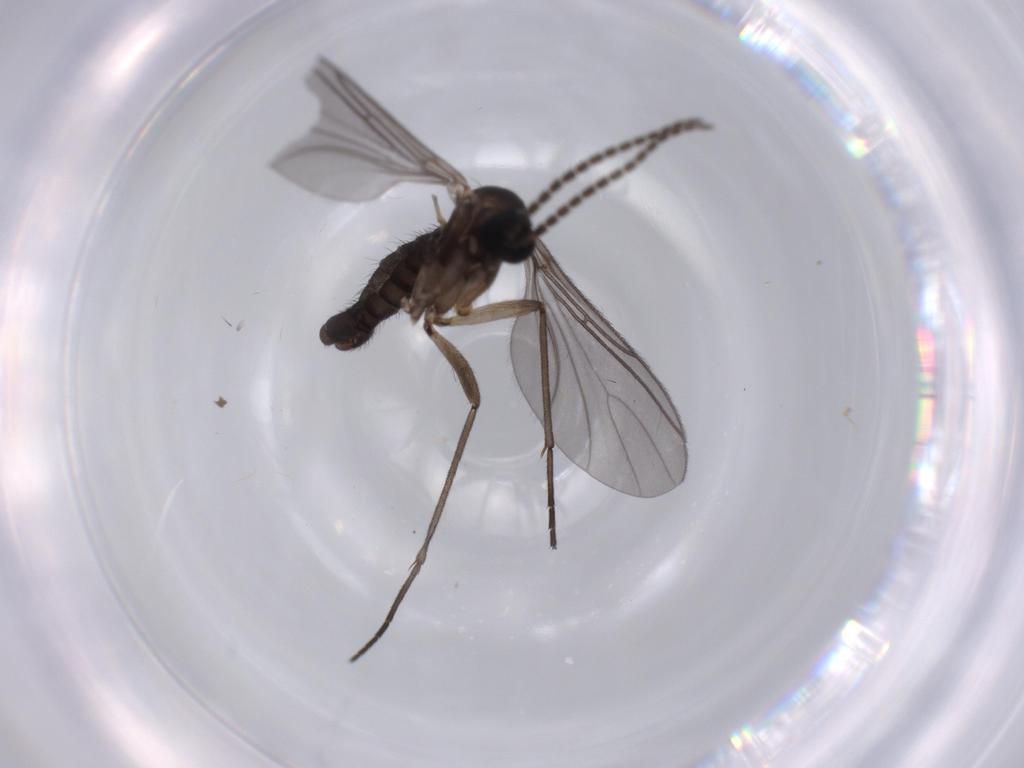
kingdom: Animalia
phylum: Arthropoda
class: Insecta
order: Diptera
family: Sciaridae
